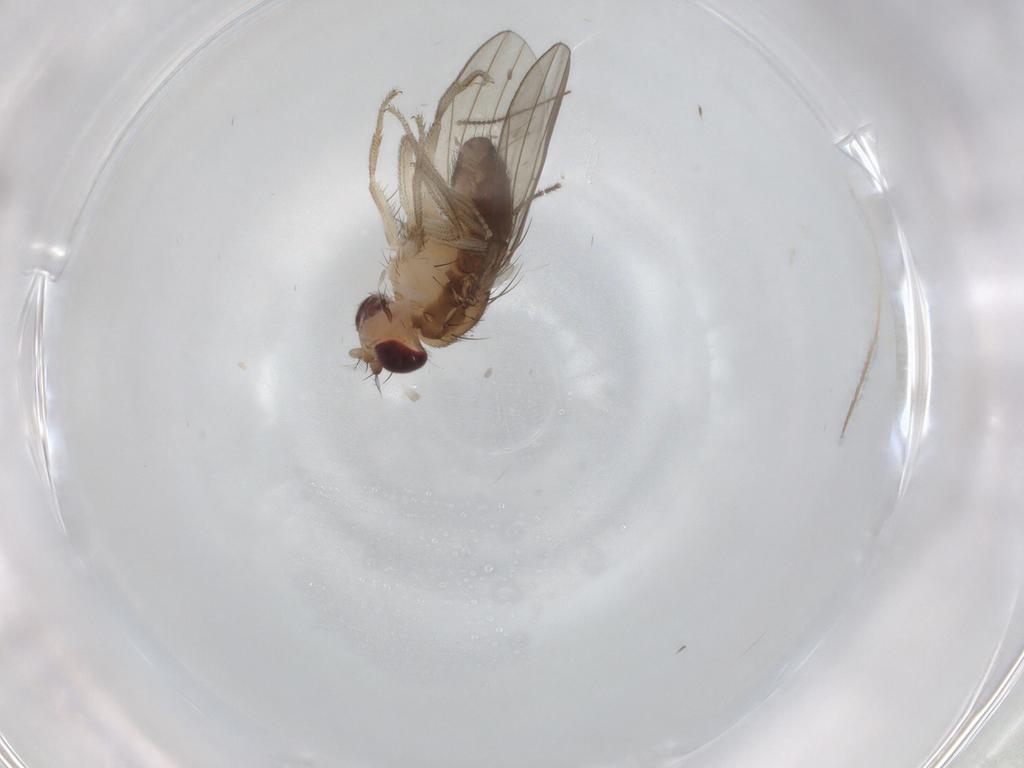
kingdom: Animalia
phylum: Arthropoda
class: Insecta
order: Diptera
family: Drosophilidae
